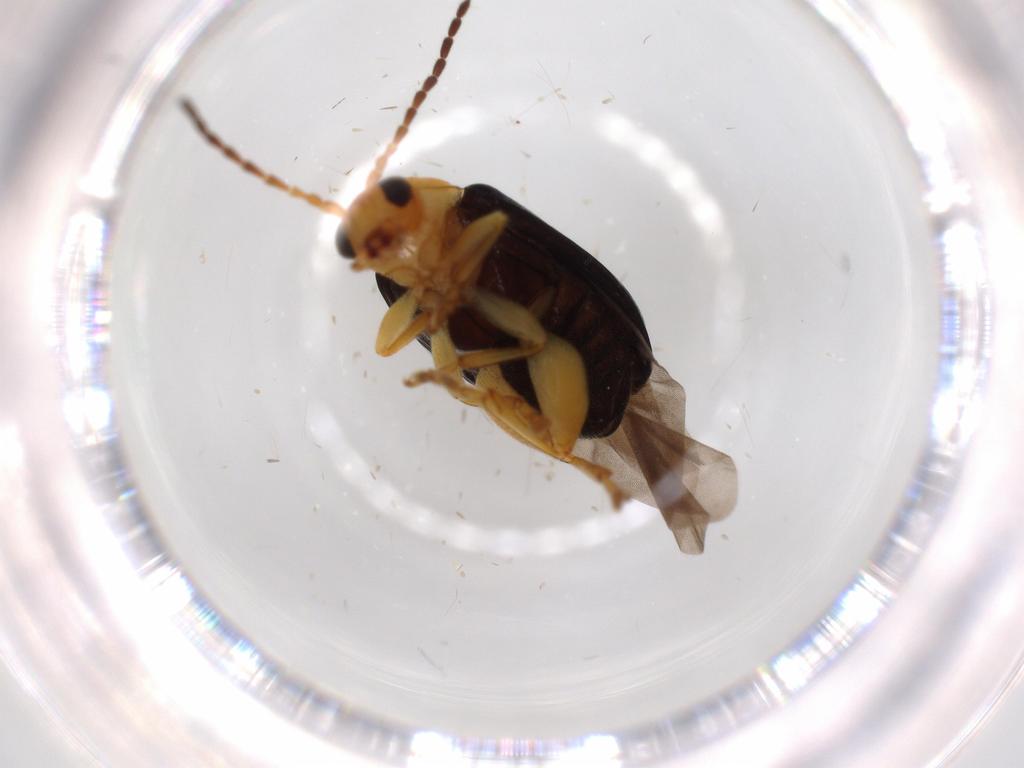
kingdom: Animalia
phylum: Arthropoda
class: Insecta
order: Coleoptera
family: Chrysomelidae
